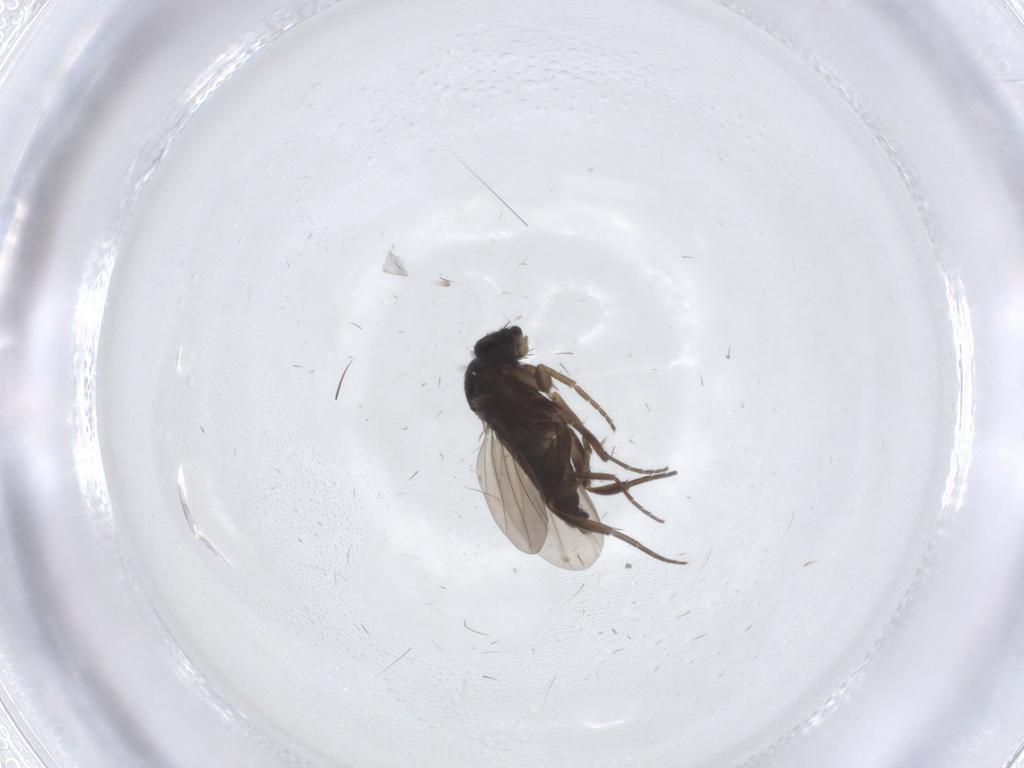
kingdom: Animalia
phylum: Arthropoda
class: Insecta
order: Diptera
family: Phoridae
